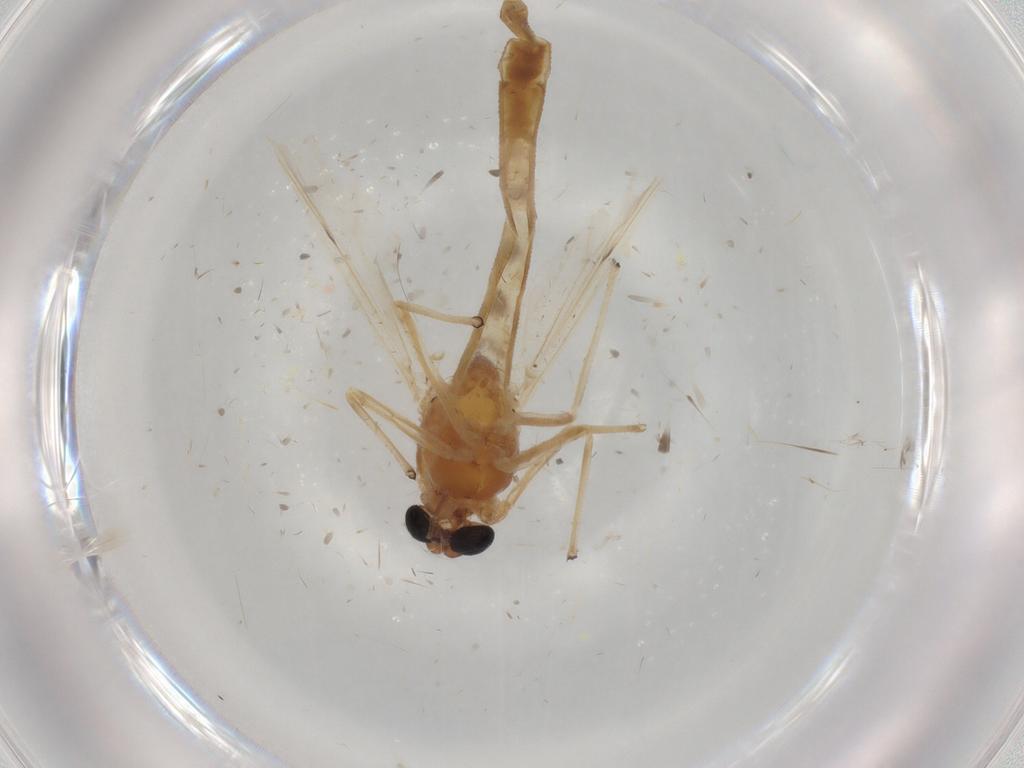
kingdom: Animalia
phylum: Arthropoda
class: Insecta
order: Diptera
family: Chironomidae
